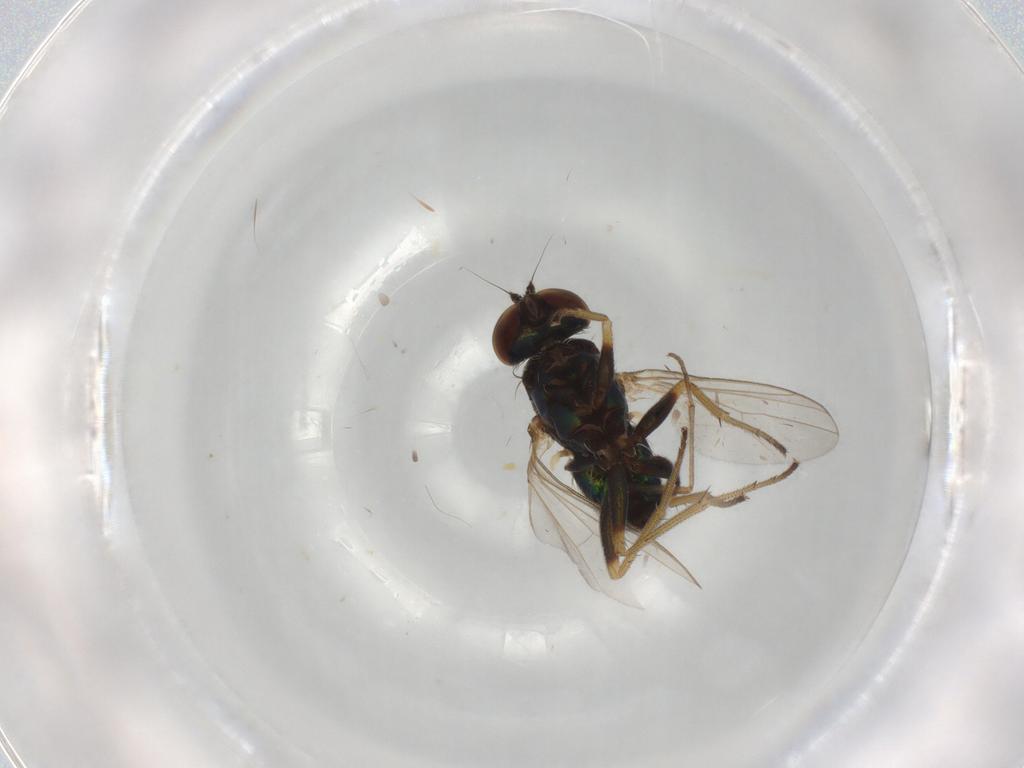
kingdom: Animalia
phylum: Arthropoda
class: Insecta
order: Diptera
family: Dolichopodidae
